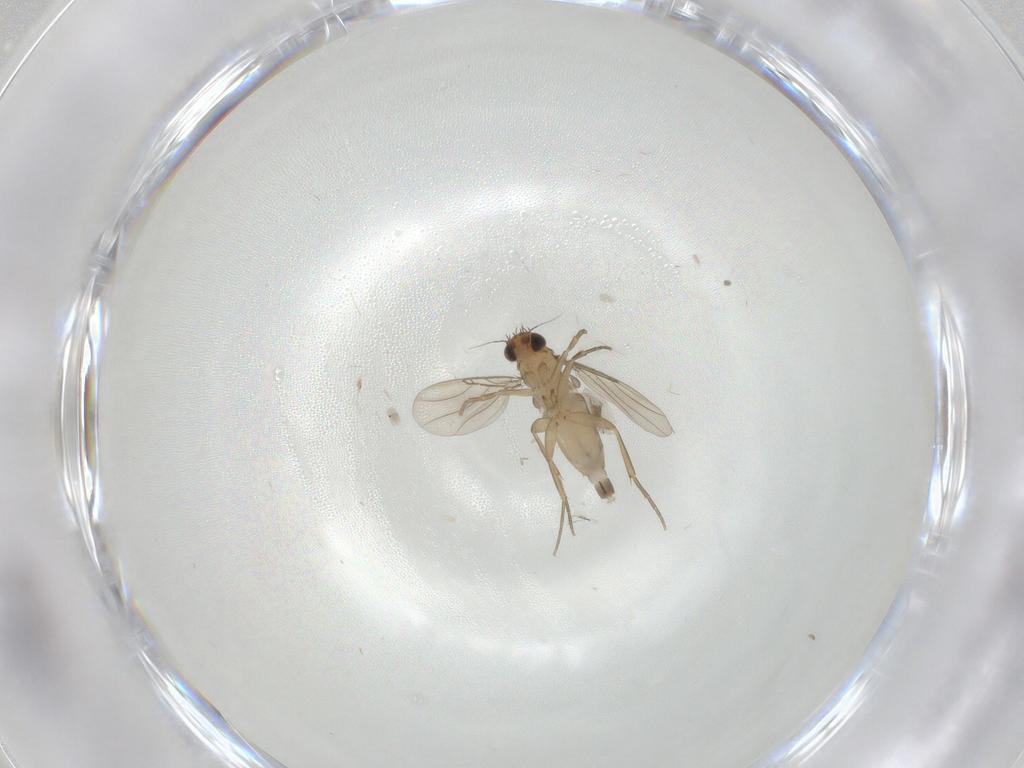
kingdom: Animalia
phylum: Arthropoda
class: Insecta
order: Diptera
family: Phoridae
